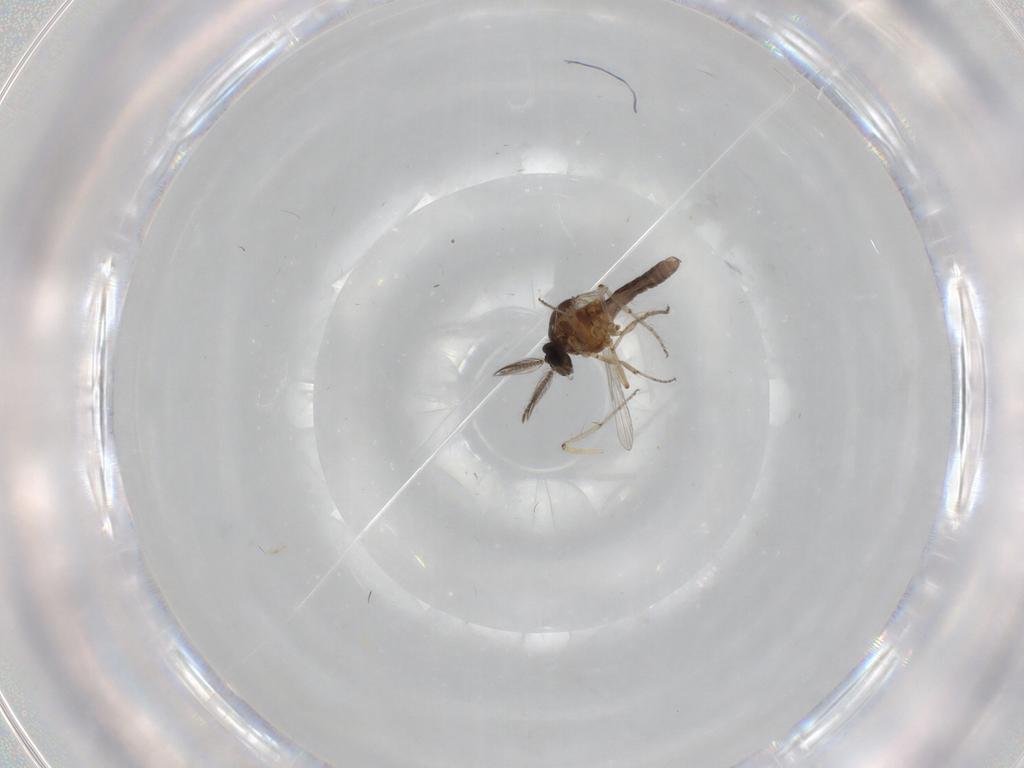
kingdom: Animalia
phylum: Arthropoda
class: Insecta
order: Diptera
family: Ceratopogonidae
